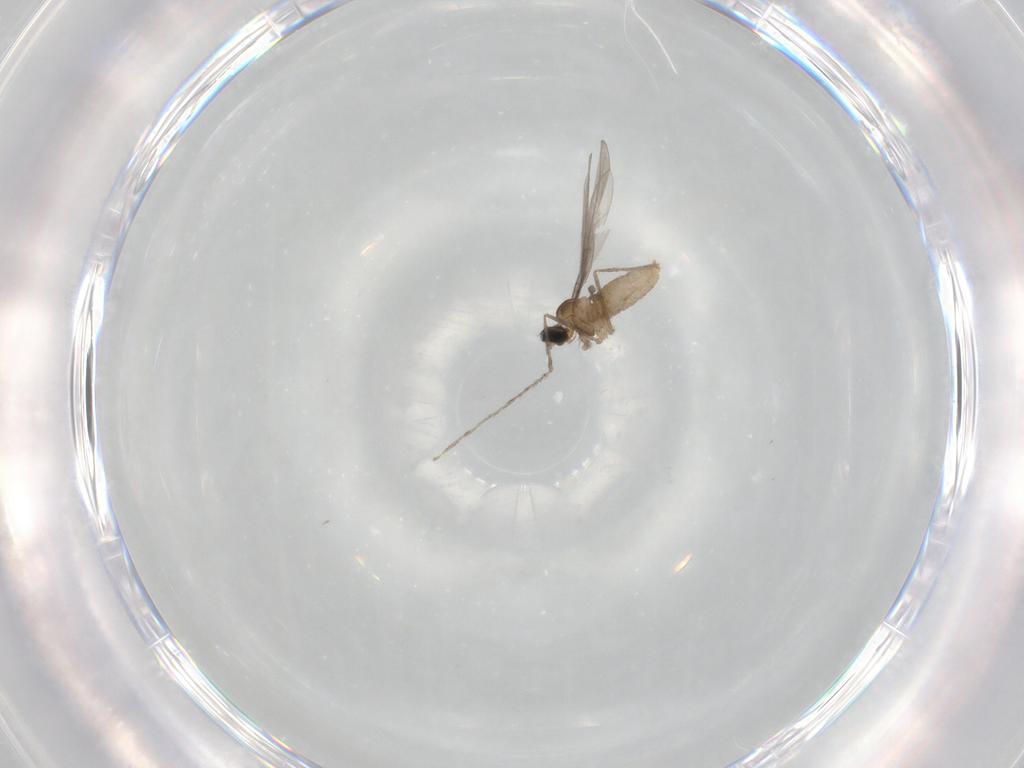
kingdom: Animalia
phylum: Arthropoda
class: Insecta
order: Diptera
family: Cecidomyiidae
